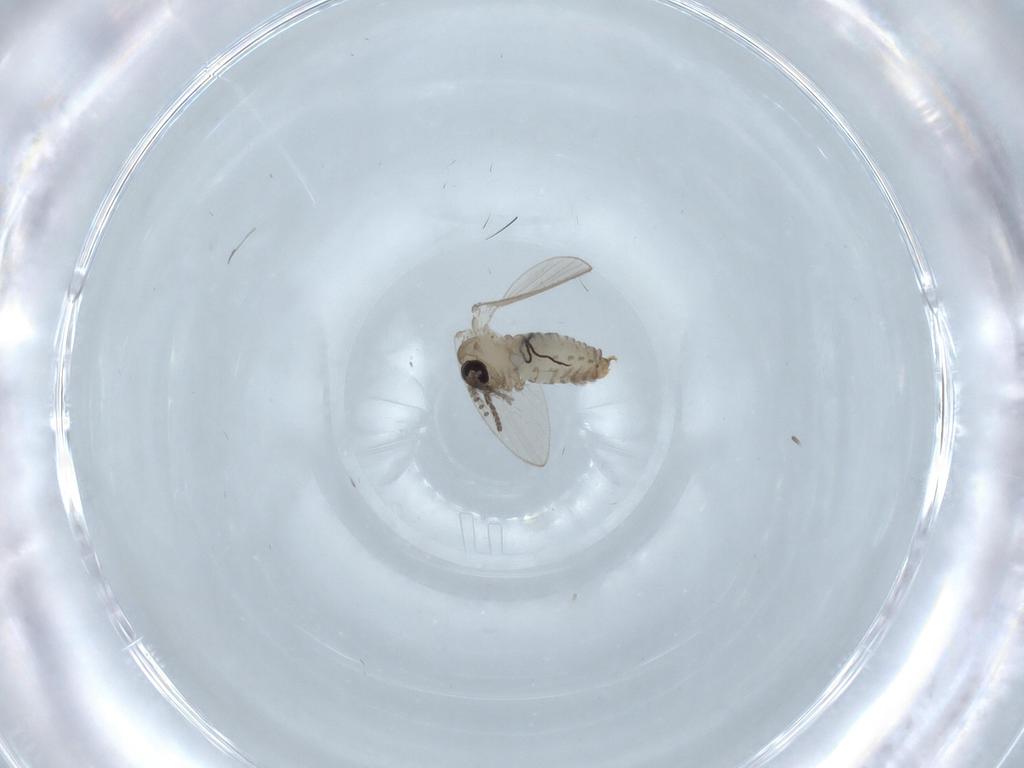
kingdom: Animalia
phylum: Arthropoda
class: Insecta
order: Diptera
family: Psychodidae
